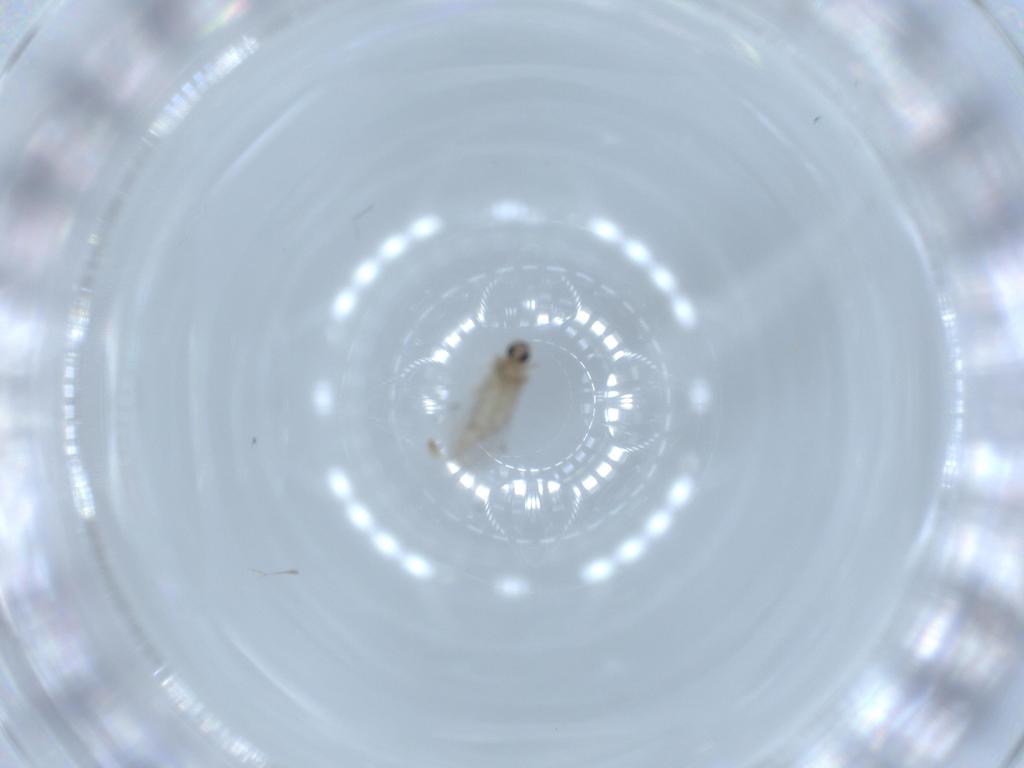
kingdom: Animalia
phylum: Arthropoda
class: Insecta
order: Diptera
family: Cecidomyiidae
